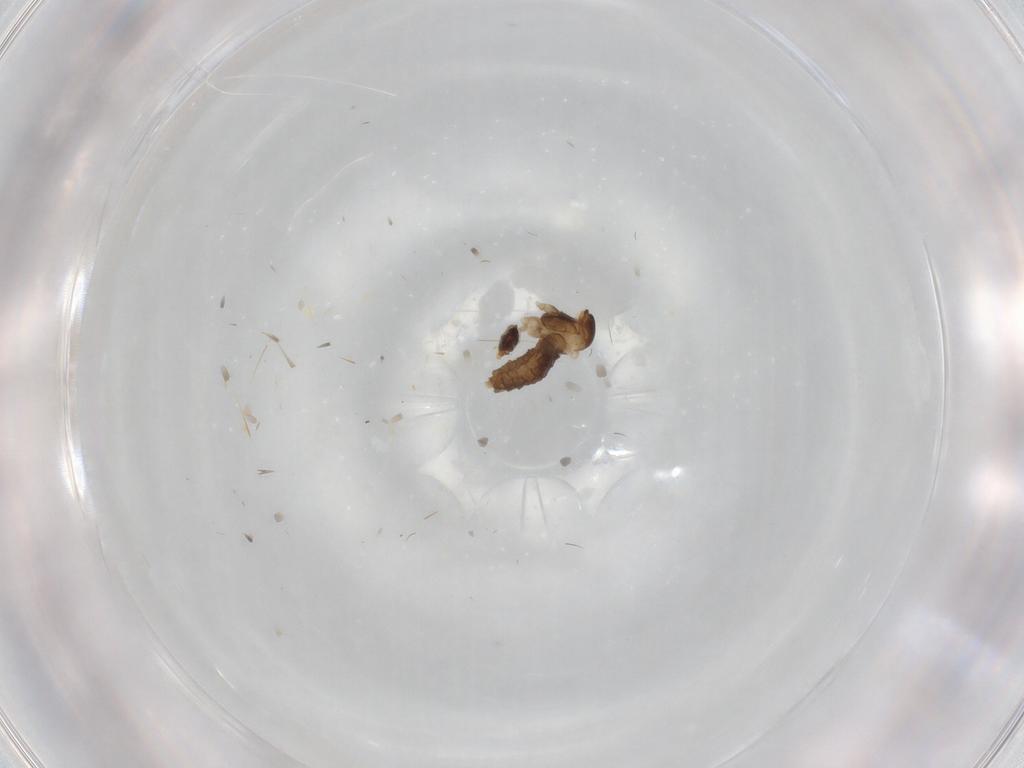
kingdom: Animalia
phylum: Arthropoda
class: Insecta
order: Diptera
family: Cecidomyiidae
